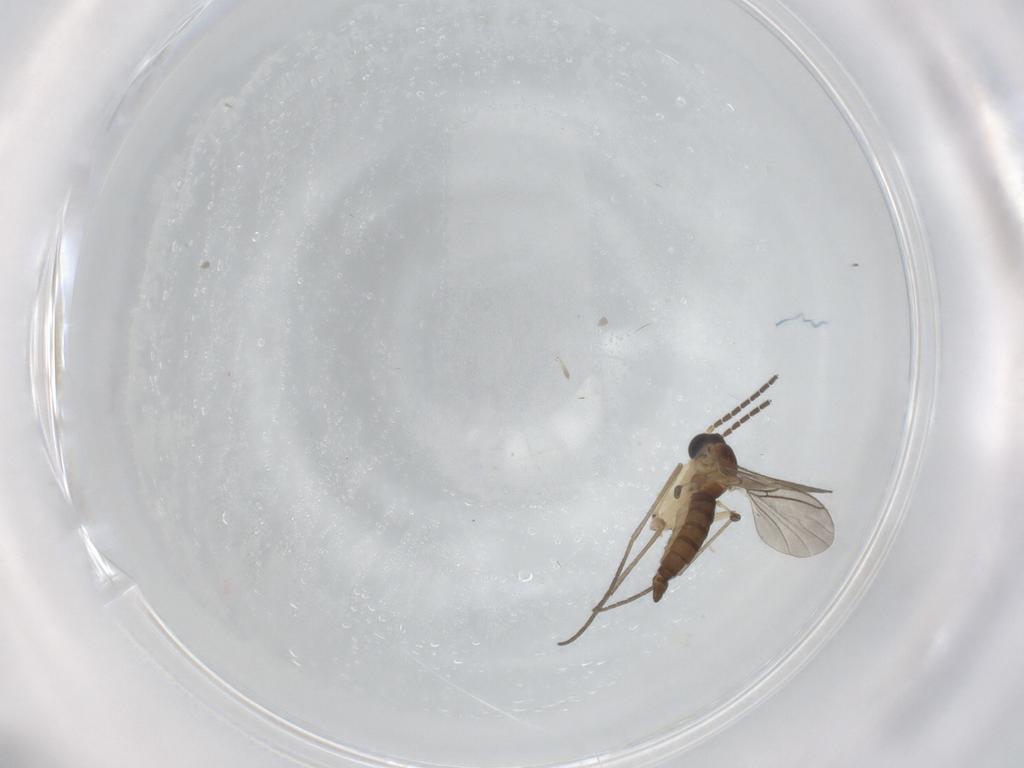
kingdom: Animalia
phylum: Arthropoda
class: Insecta
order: Diptera
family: Sciaridae
